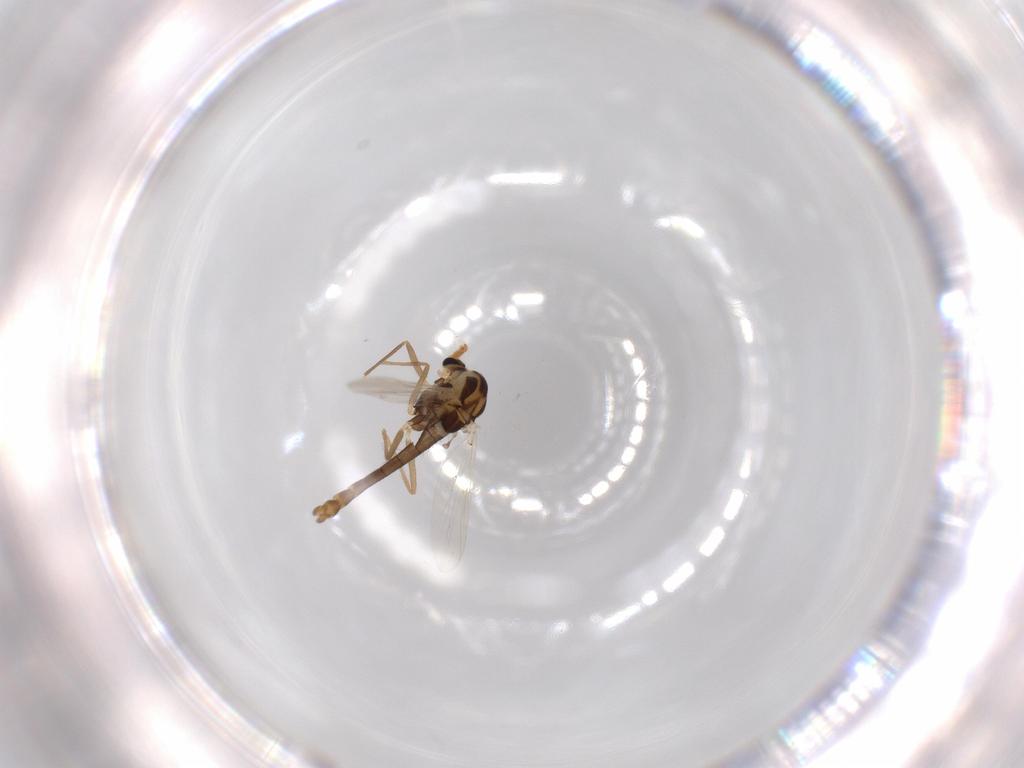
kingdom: Animalia
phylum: Arthropoda
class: Insecta
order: Diptera
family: Chironomidae
